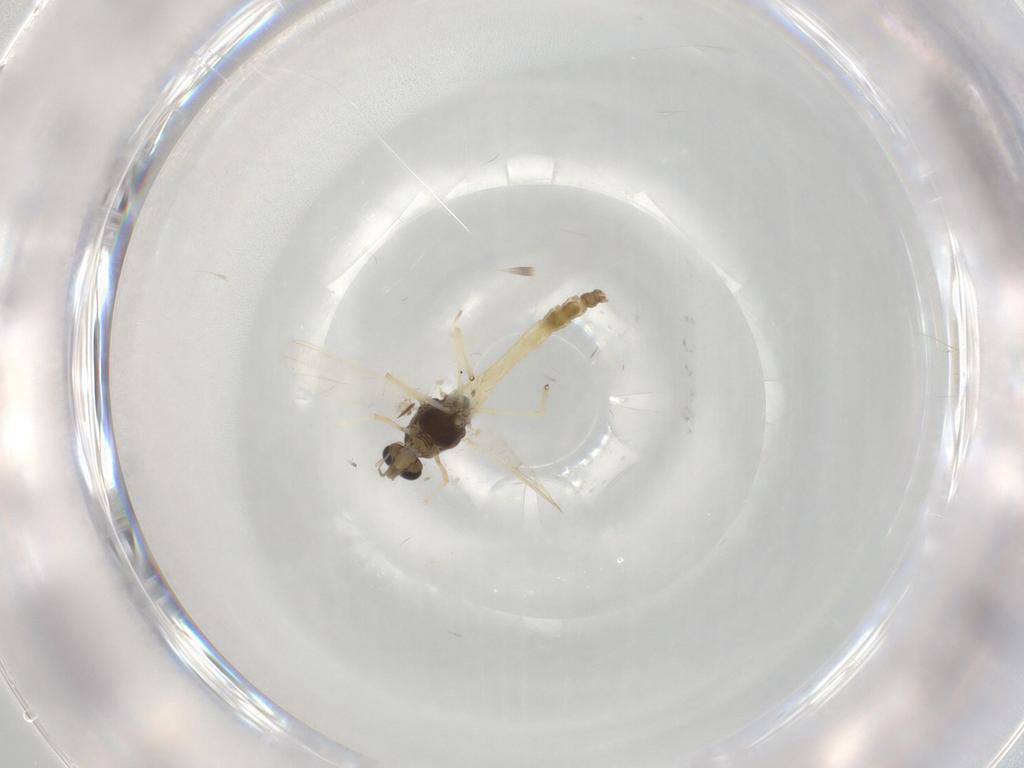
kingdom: Animalia
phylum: Arthropoda
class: Insecta
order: Diptera
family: Chironomidae
